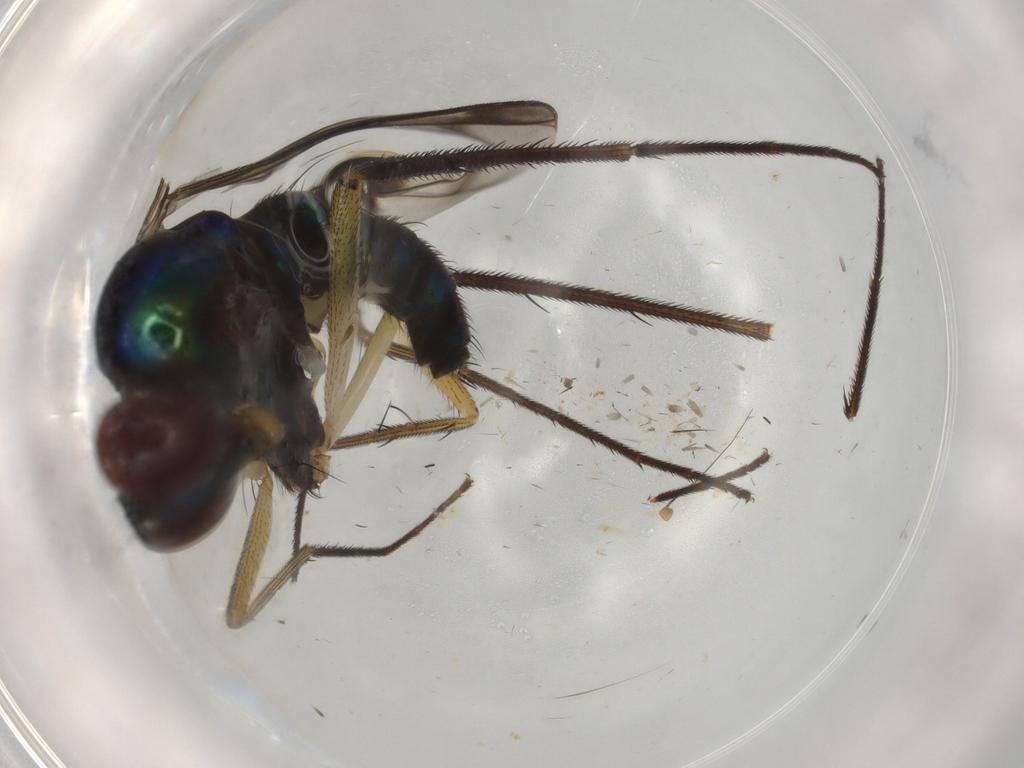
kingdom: Animalia
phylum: Arthropoda
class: Insecta
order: Diptera
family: Dolichopodidae
